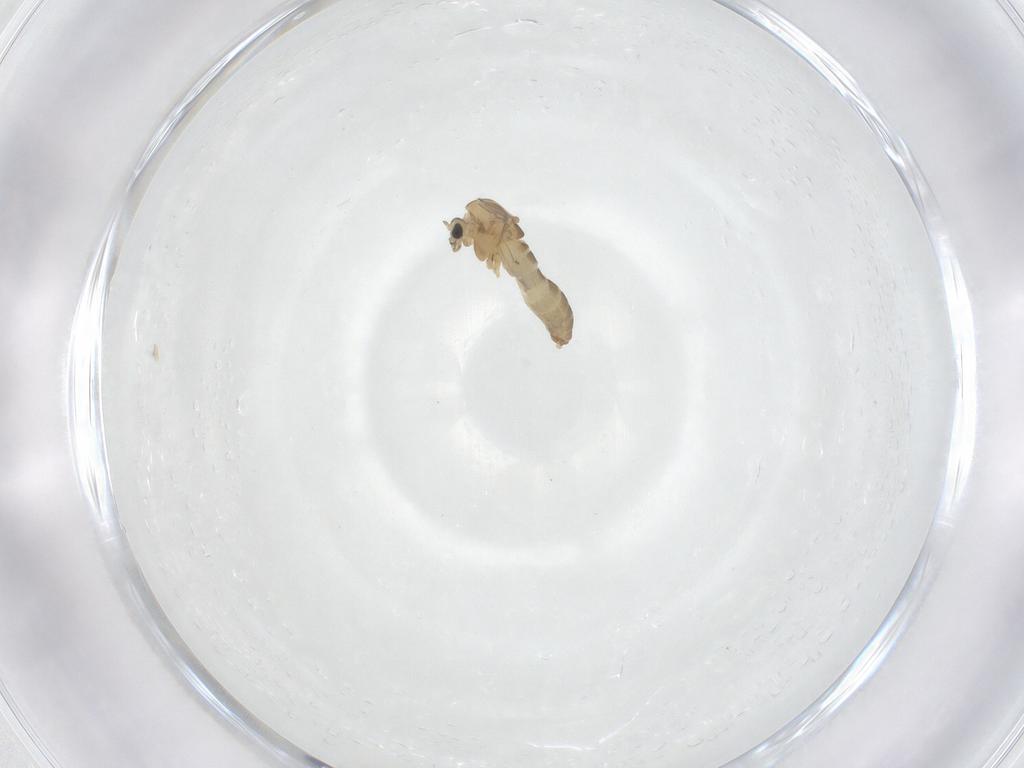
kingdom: Animalia
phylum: Arthropoda
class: Insecta
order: Diptera
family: Chironomidae
